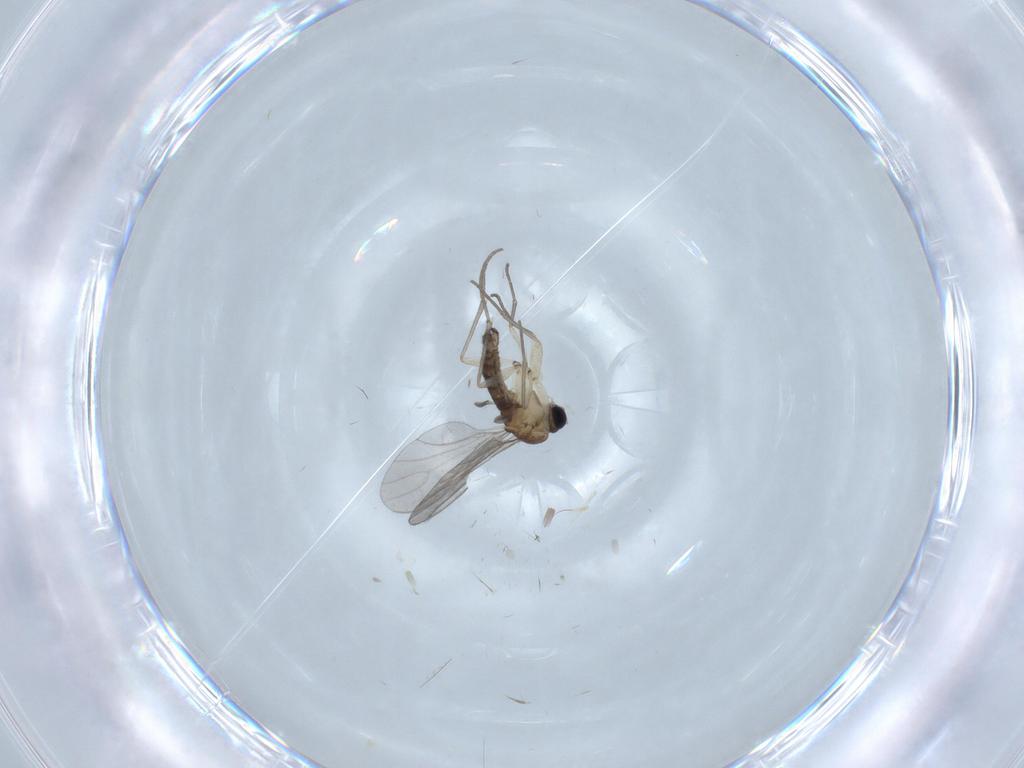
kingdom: Animalia
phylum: Arthropoda
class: Insecta
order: Diptera
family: Sciaridae
